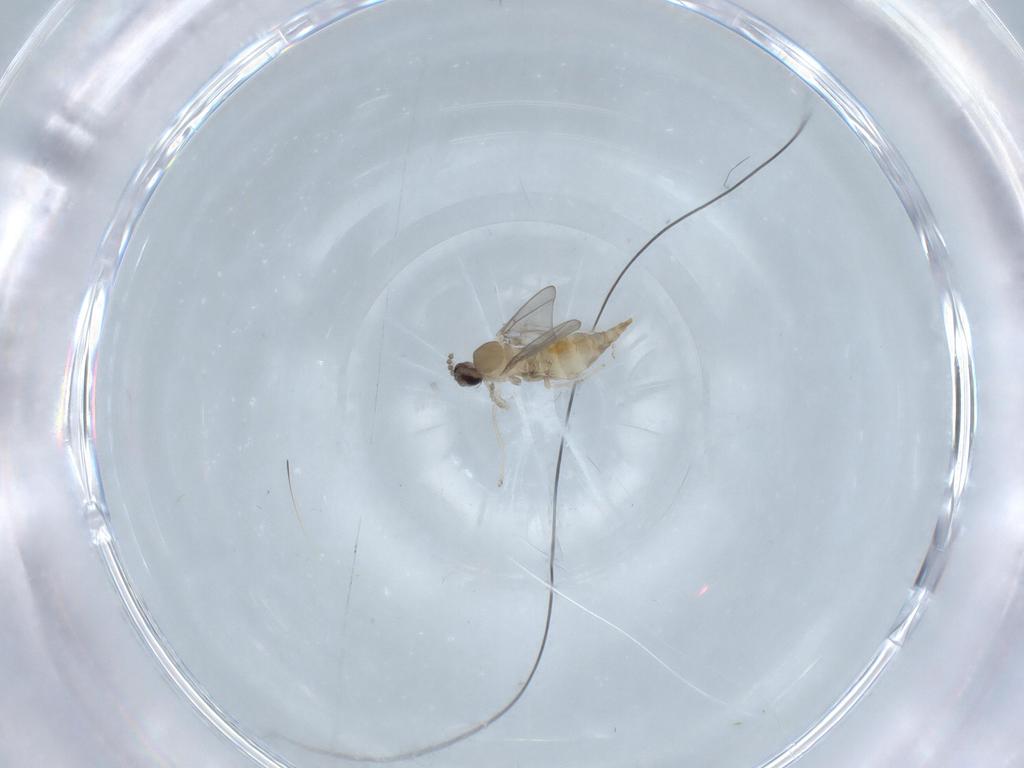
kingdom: Animalia
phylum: Arthropoda
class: Insecta
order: Diptera
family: Cecidomyiidae
